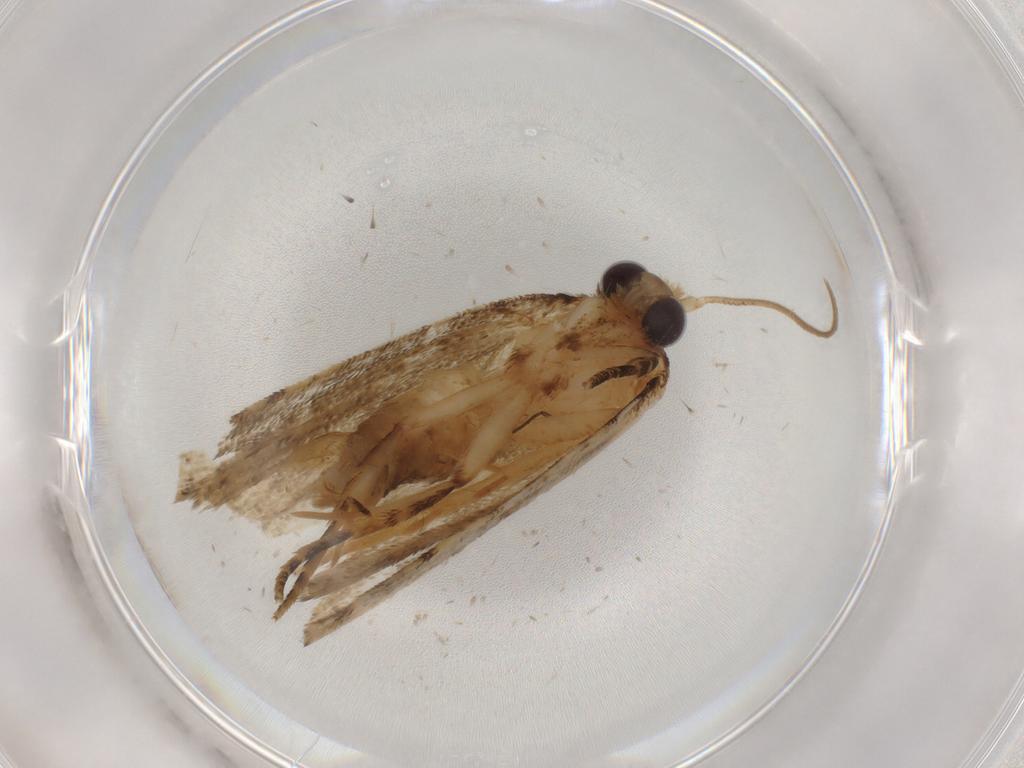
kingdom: Animalia
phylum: Arthropoda
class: Insecta
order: Lepidoptera
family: Gelechiidae
